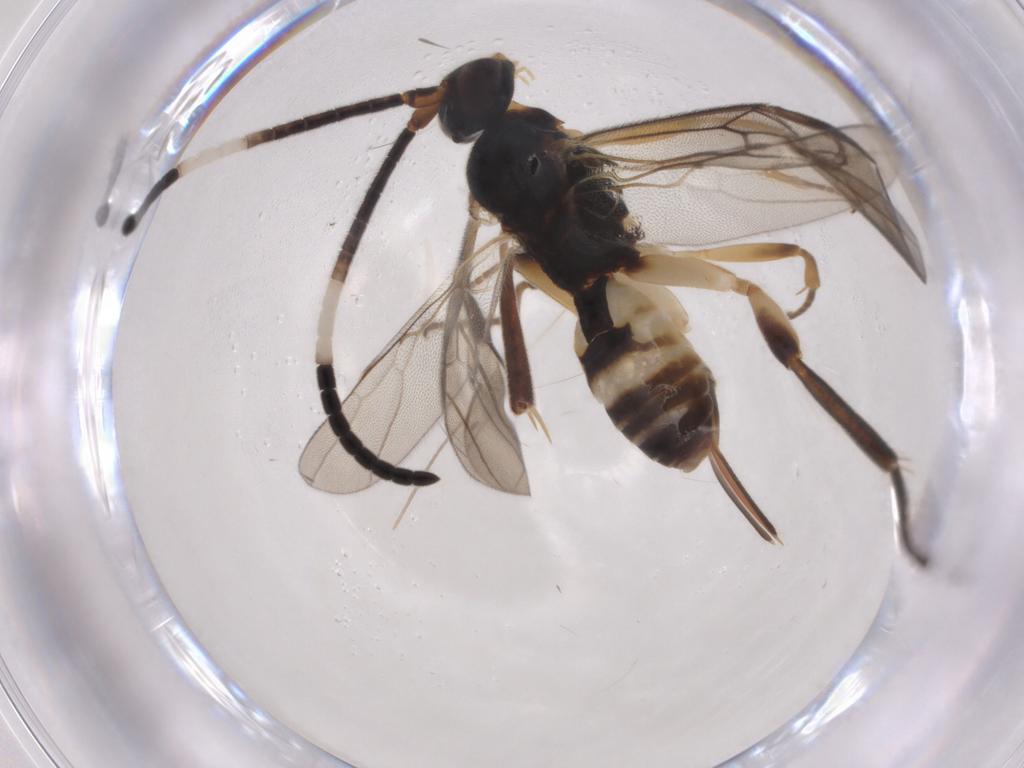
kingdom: Animalia
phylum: Arthropoda
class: Insecta
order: Hymenoptera
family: Braconidae
